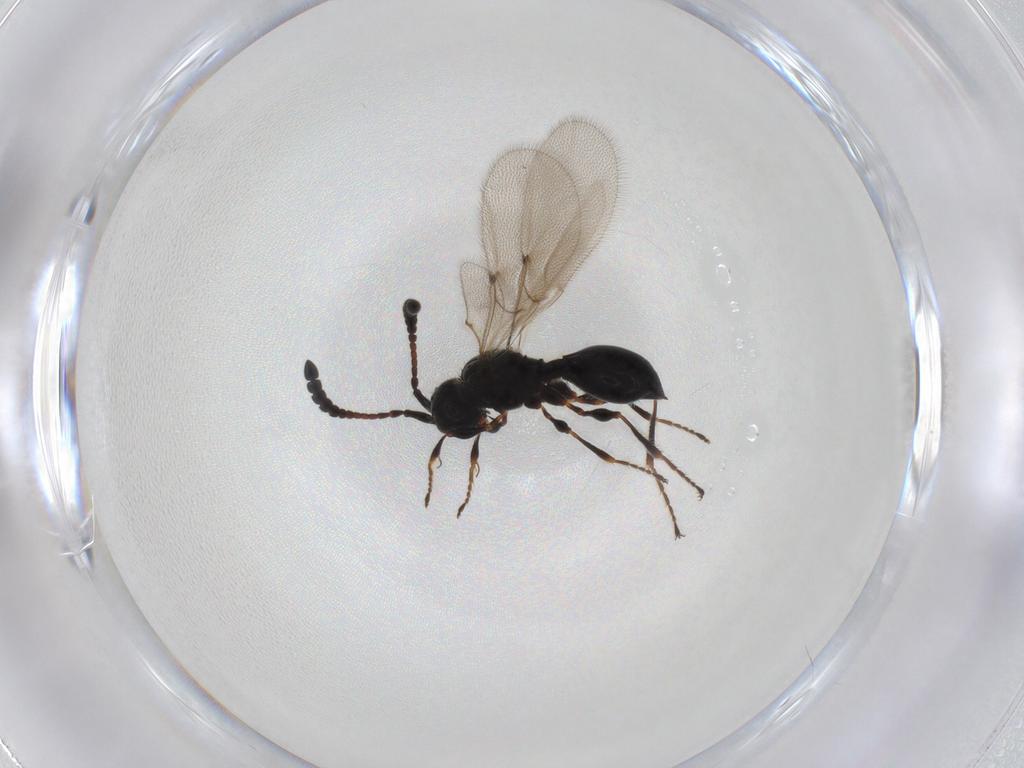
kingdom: Animalia
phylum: Arthropoda
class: Insecta
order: Hymenoptera
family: Diapriidae
